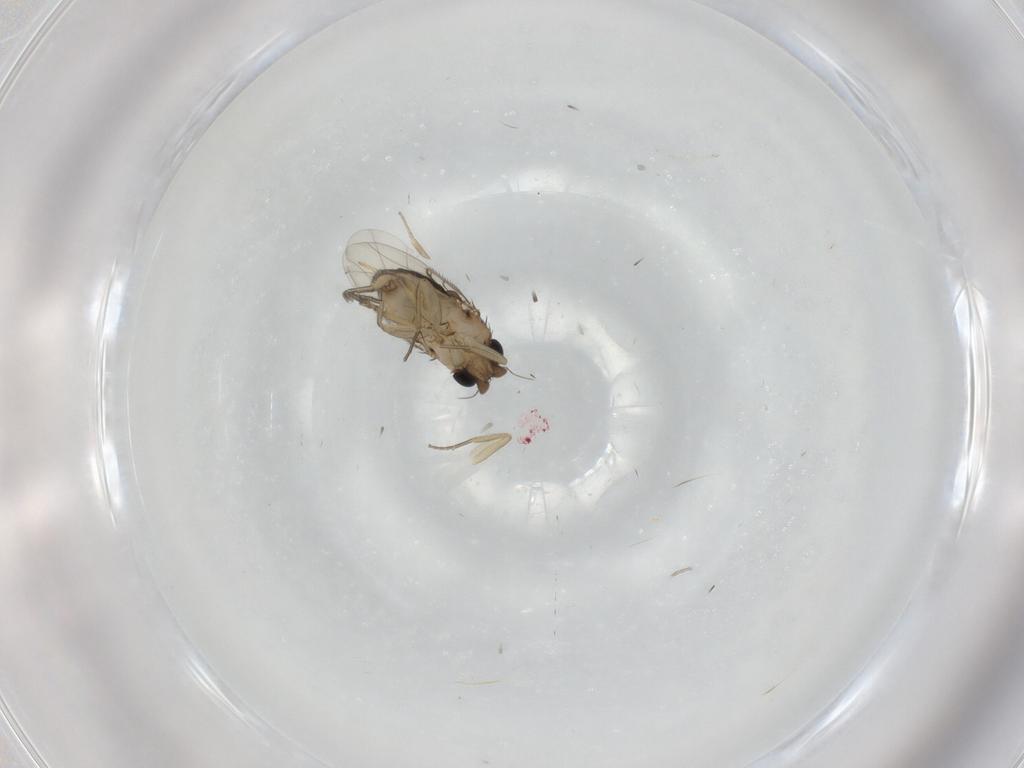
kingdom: Animalia
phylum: Arthropoda
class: Insecta
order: Diptera
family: Phoridae
